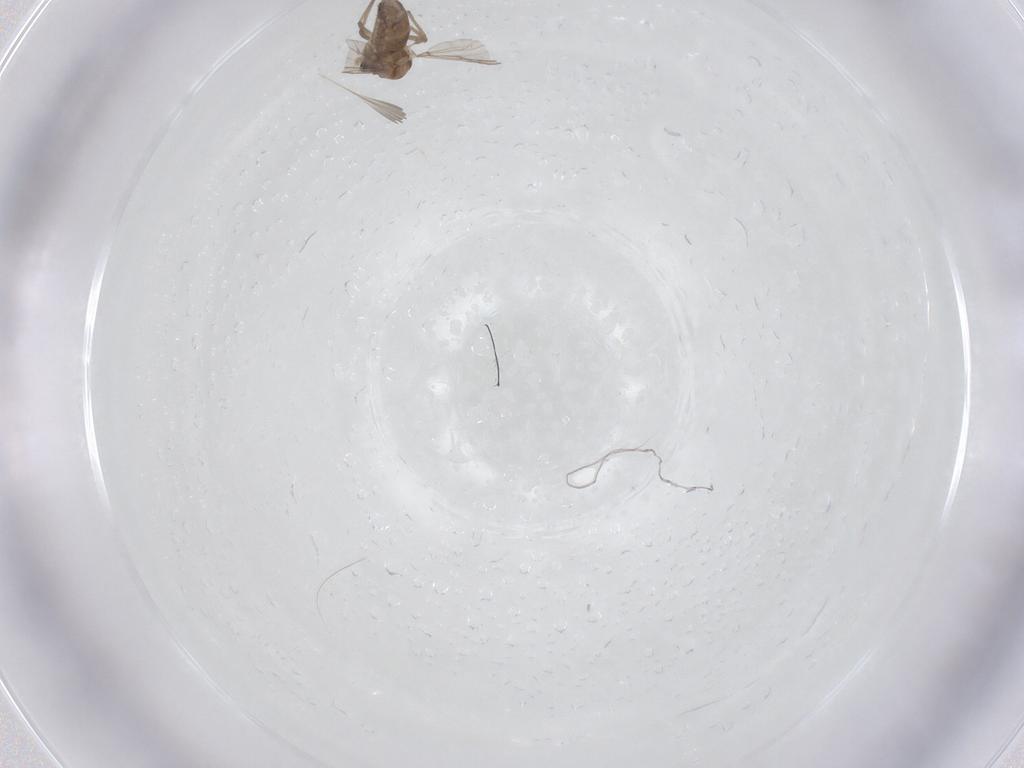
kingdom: Animalia
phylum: Arthropoda
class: Insecta
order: Diptera
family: Chironomidae
